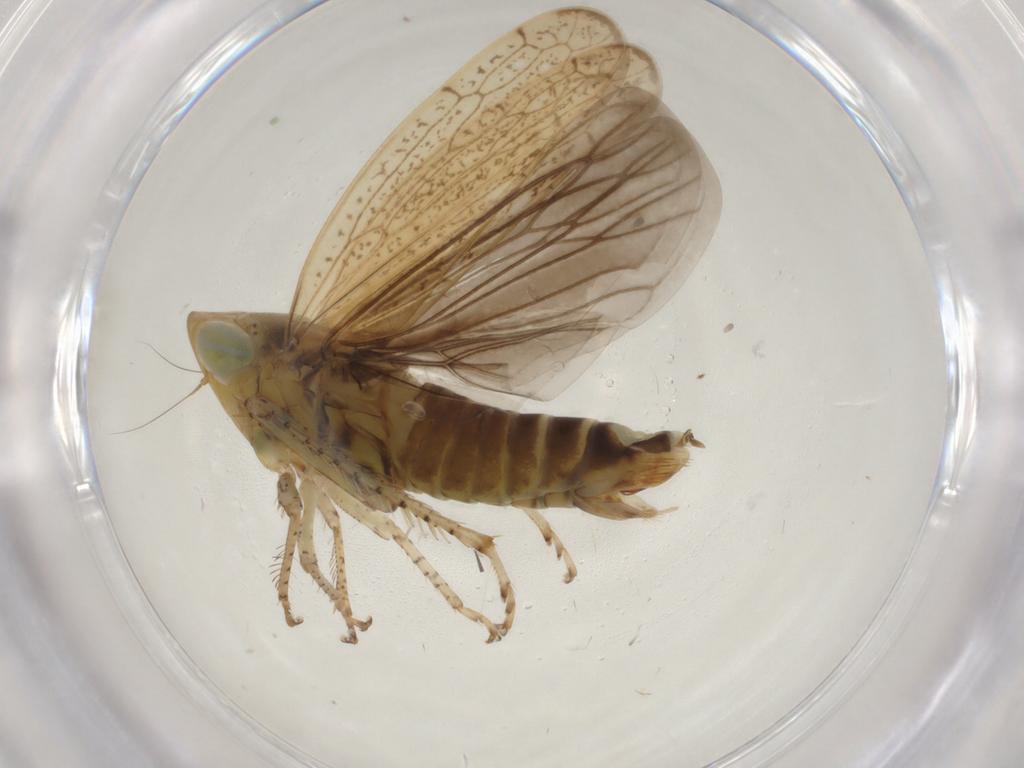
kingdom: Animalia
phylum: Arthropoda
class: Insecta
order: Hemiptera
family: Cicadellidae
